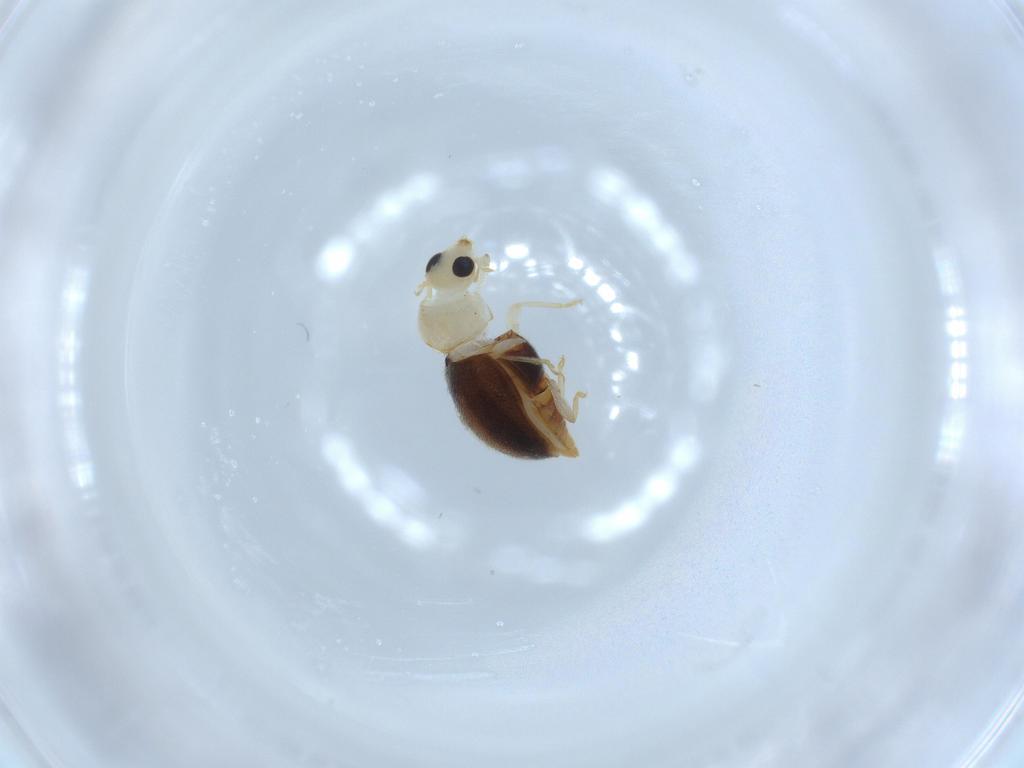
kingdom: Animalia
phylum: Arthropoda
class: Insecta
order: Coleoptera
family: Coccinellidae
